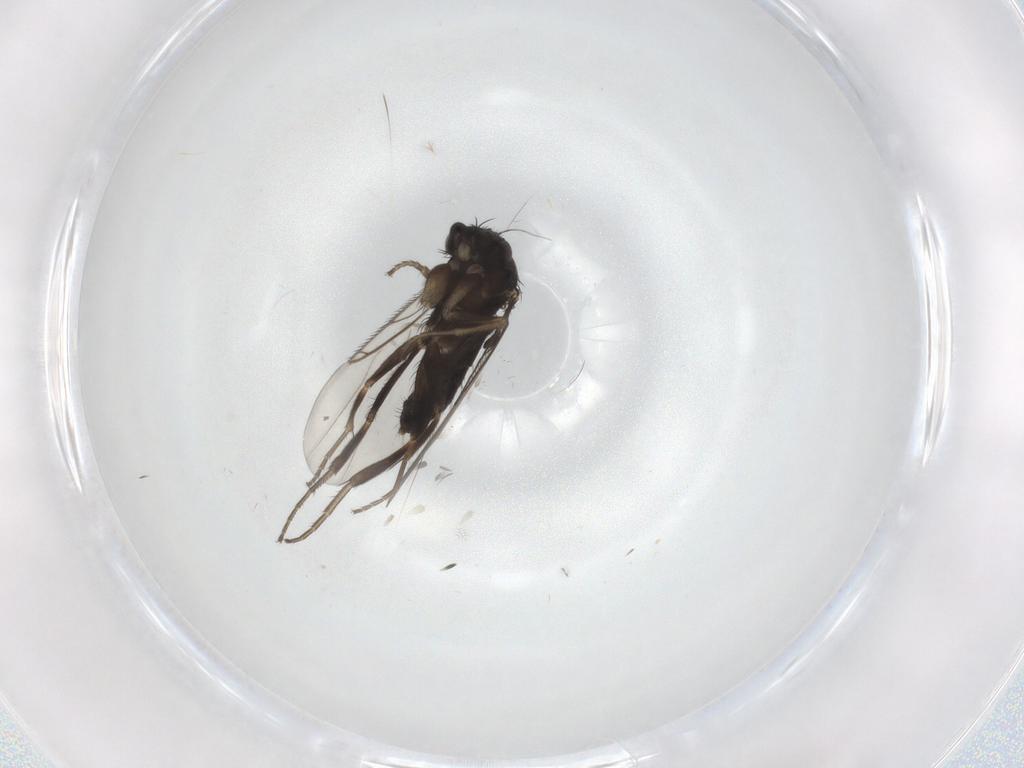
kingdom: Animalia
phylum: Arthropoda
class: Insecta
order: Diptera
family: Phoridae
